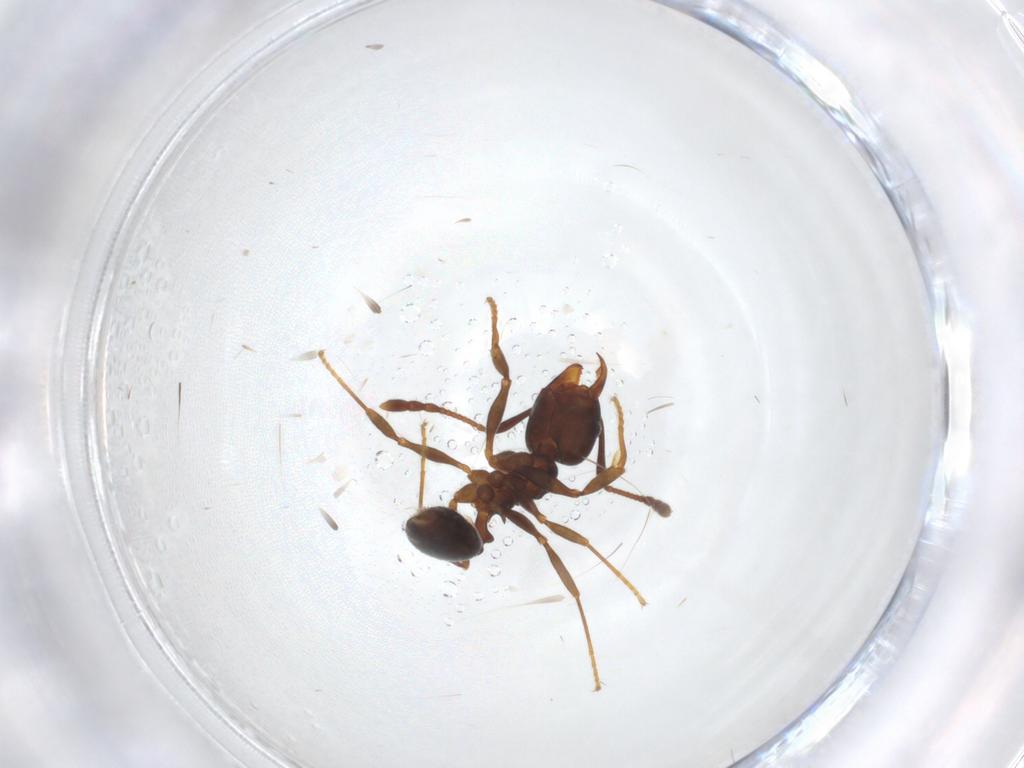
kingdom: Animalia
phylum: Arthropoda
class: Insecta
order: Hymenoptera
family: Formicidae
